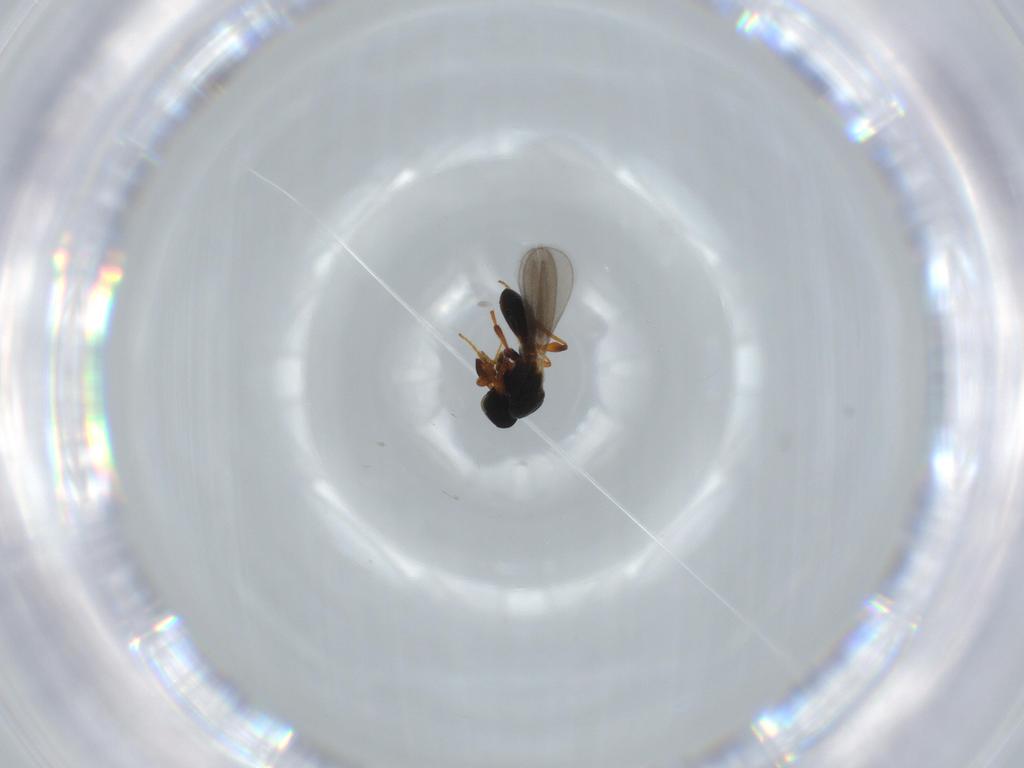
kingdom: Animalia
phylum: Arthropoda
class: Insecta
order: Hymenoptera
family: Platygastridae
